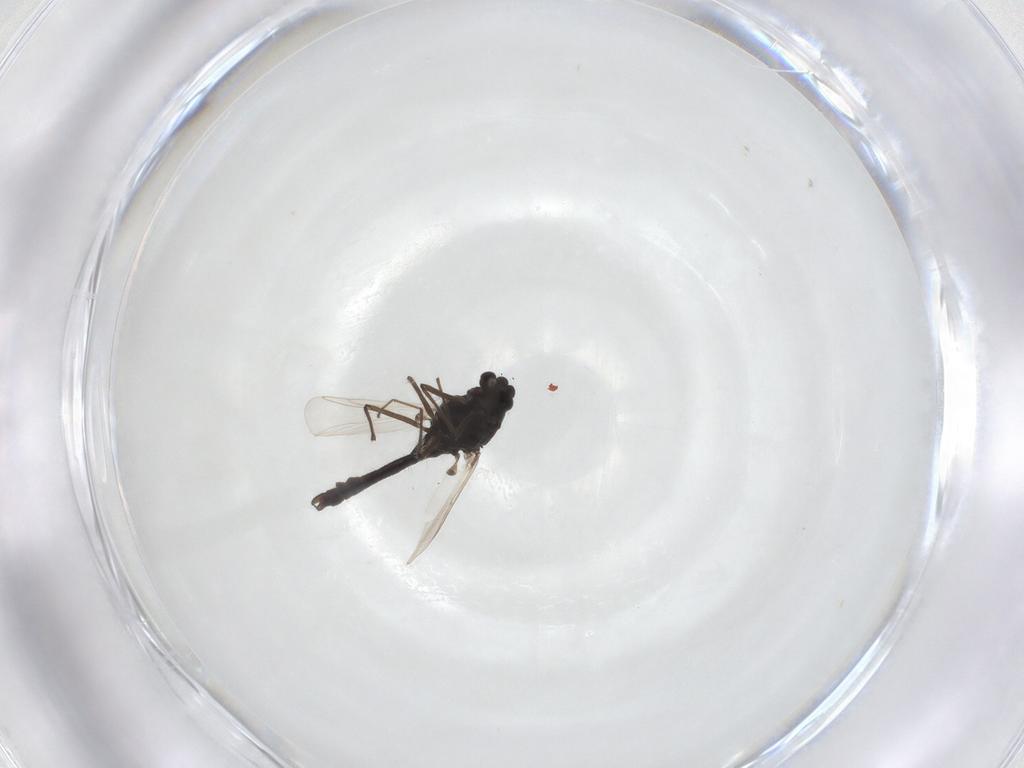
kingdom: Animalia
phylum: Arthropoda
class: Insecta
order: Diptera
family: Chironomidae
